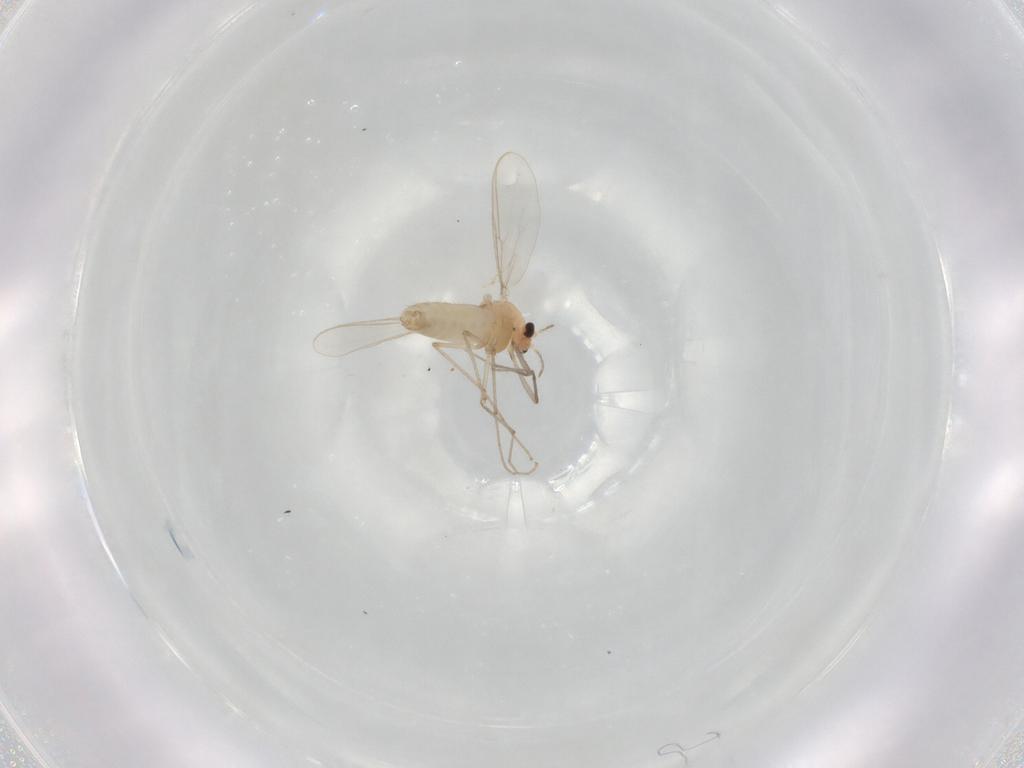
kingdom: Animalia
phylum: Arthropoda
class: Insecta
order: Diptera
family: Chironomidae
